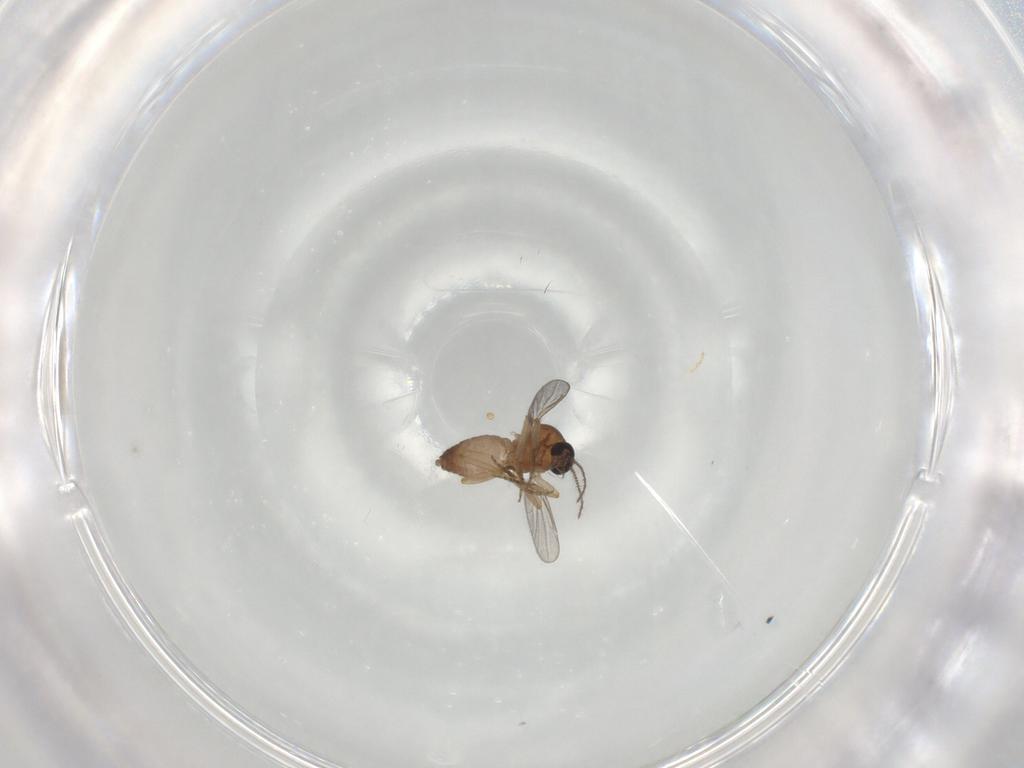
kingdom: Animalia
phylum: Arthropoda
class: Insecta
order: Diptera
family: Ceratopogonidae
